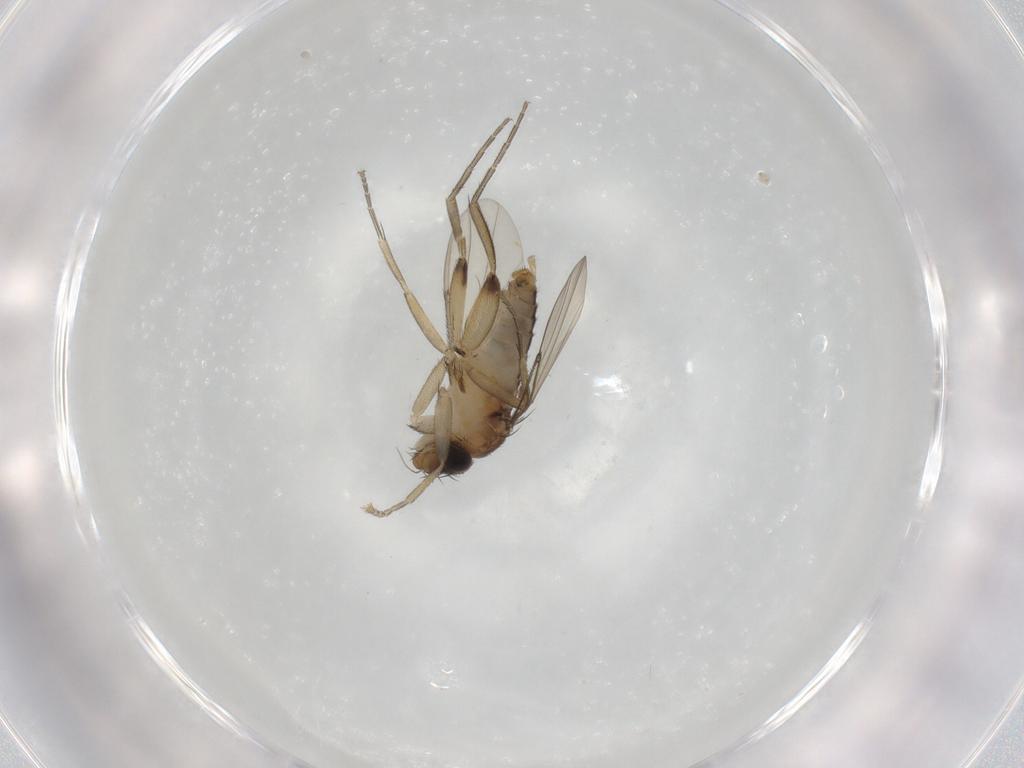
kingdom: Animalia
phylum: Arthropoda
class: Insecta
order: Diptera
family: Phoridae
